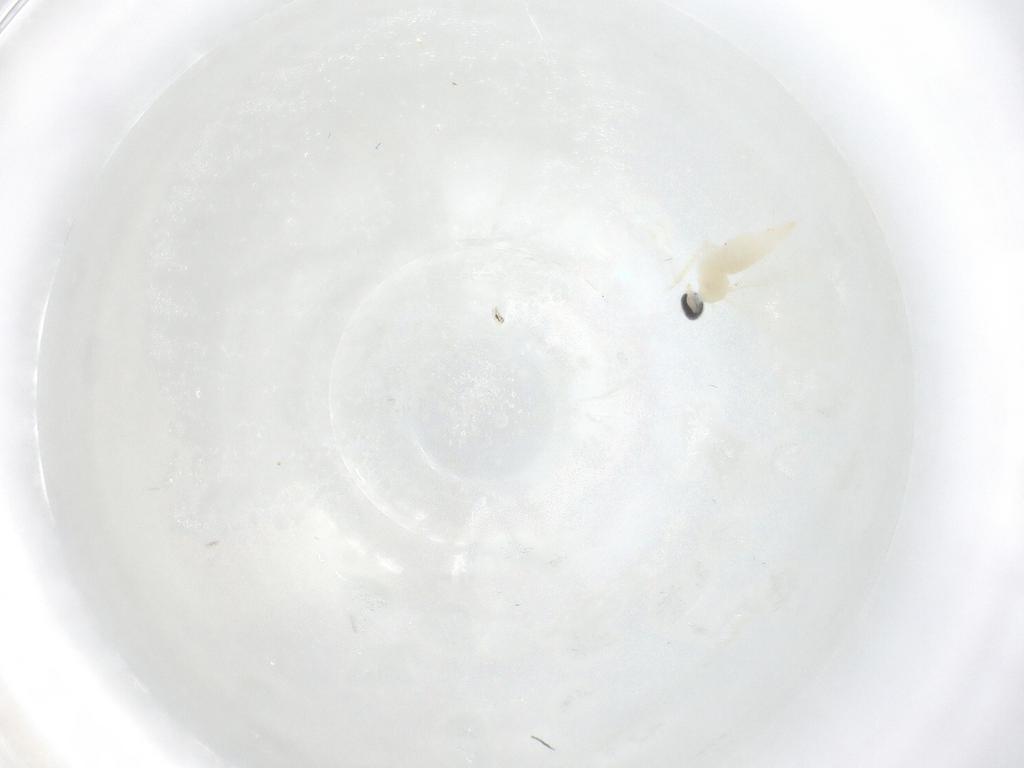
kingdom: Animalia
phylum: Arthropoda
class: Insecta
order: Diptera
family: Cecidomyiidae
